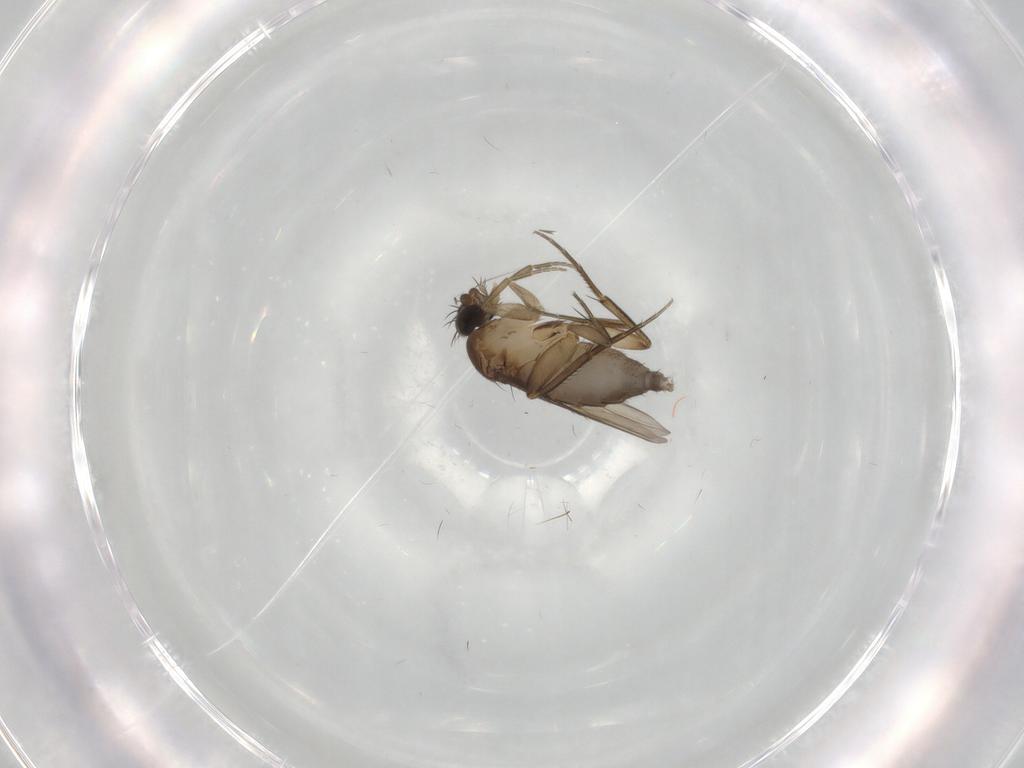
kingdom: Animalia
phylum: Arthropoda
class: Insecta
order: Diptera
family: Phoridae
